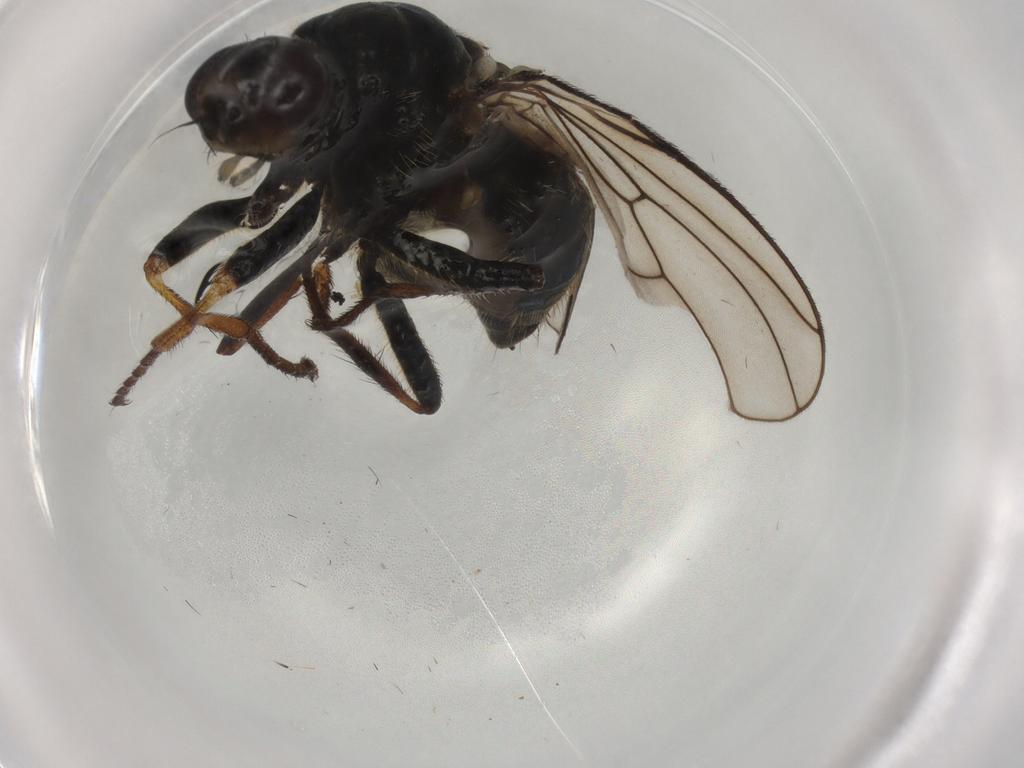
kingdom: Animalia
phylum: Arthropoda
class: Insecta
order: Diptera
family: Scathophagidae
